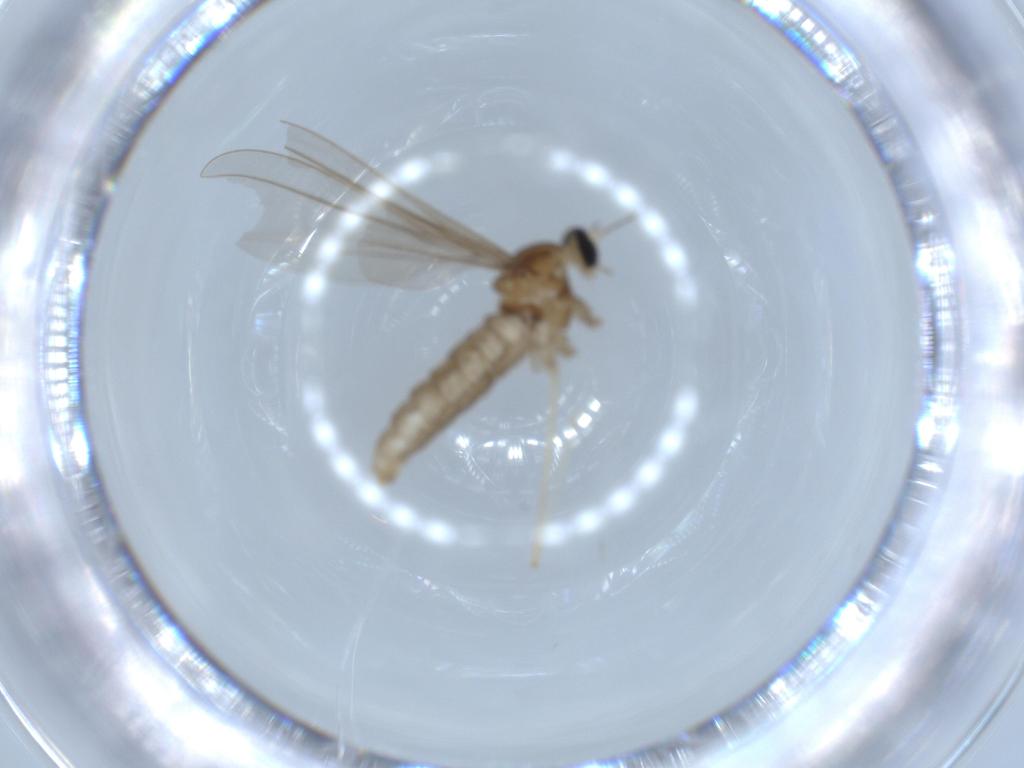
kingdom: Animalia
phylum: Arthropoda
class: Insecta
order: Diptera
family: Cecidomyiidae
